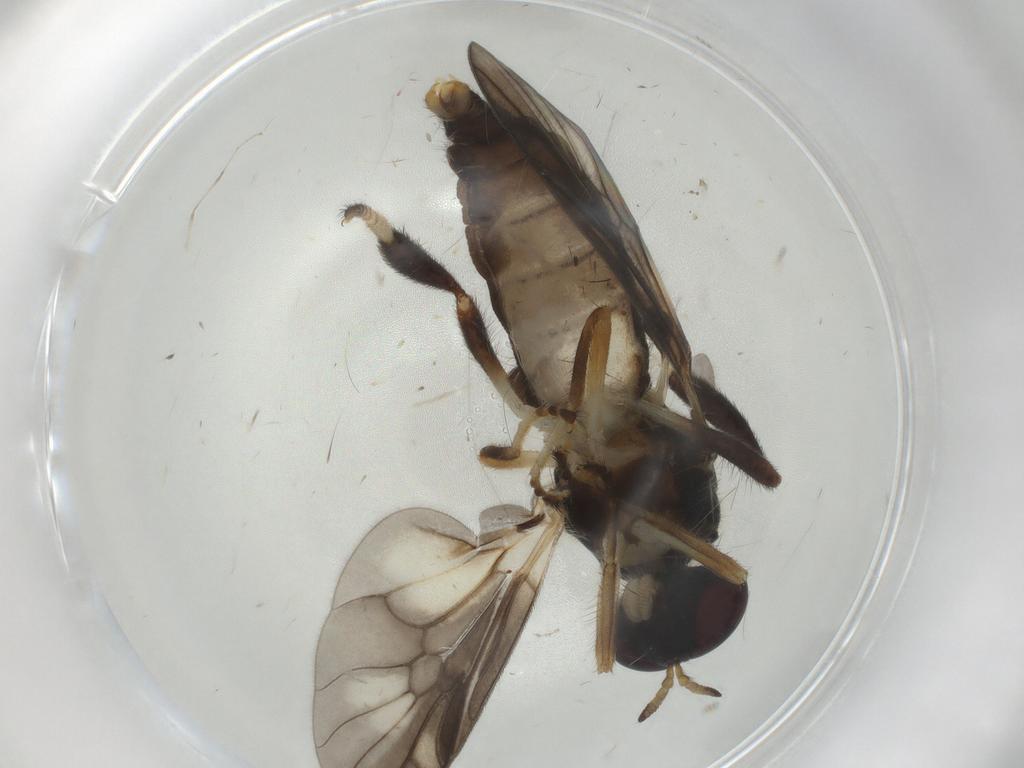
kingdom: Animalia
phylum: Arthropoda
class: Insecta
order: Diptera
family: Stratiomyidae
